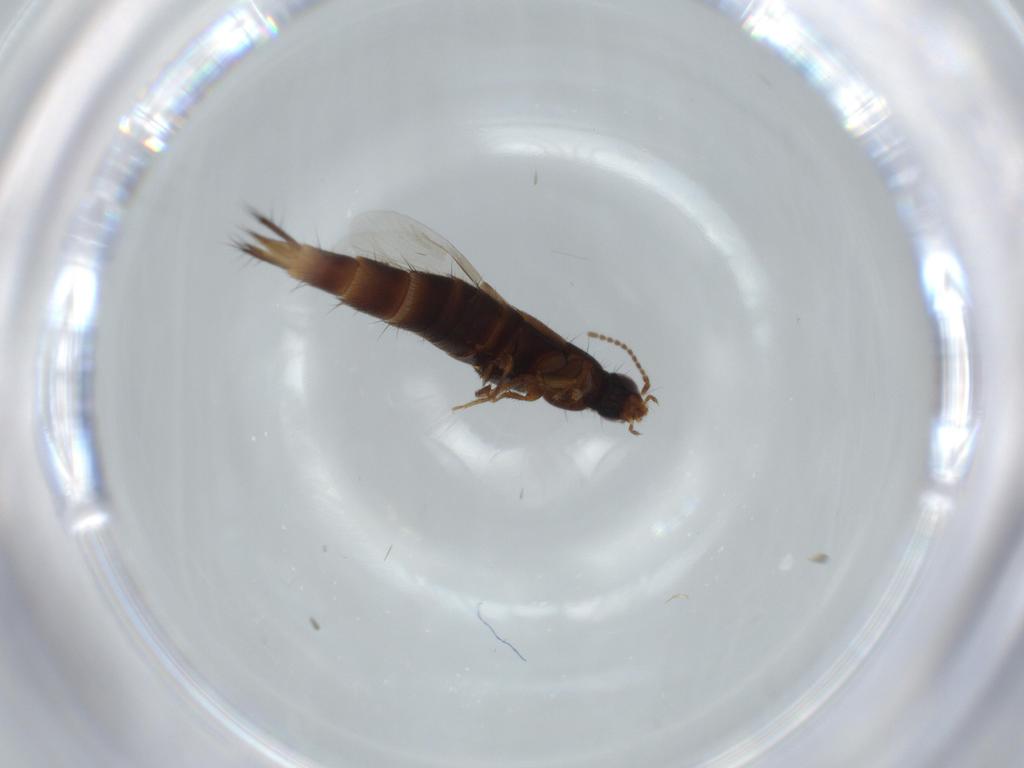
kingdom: Animalia
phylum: Arthropoda
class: Insecta
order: Coleoptera
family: Staphylinidae
